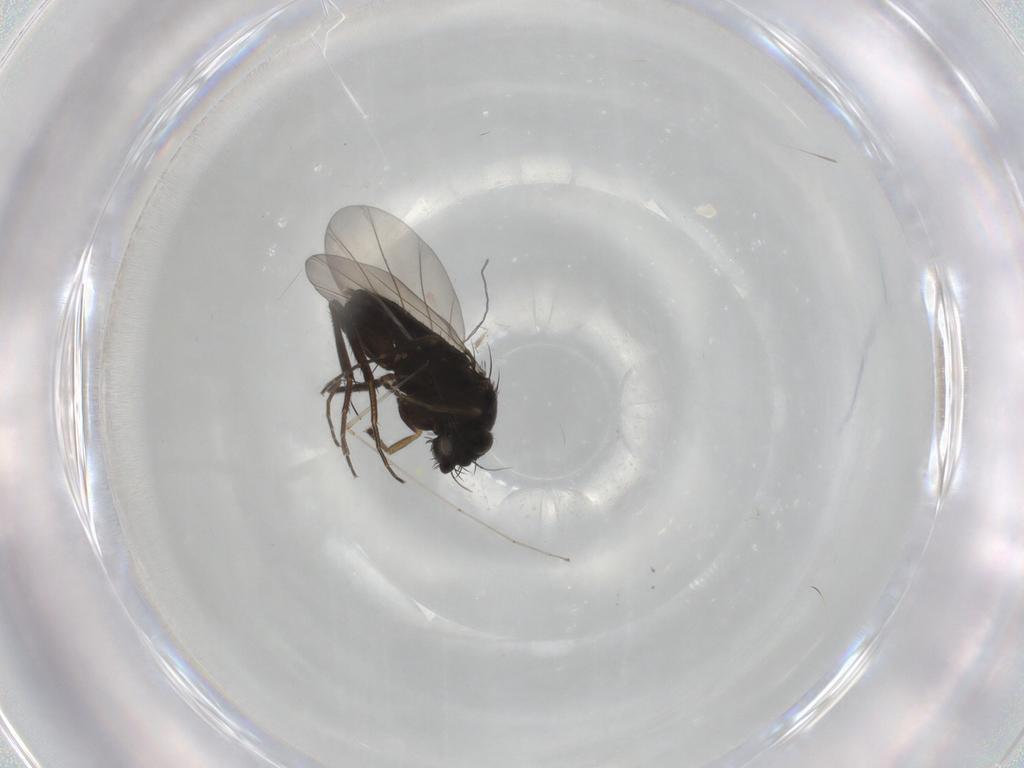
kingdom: Animalia
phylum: Arthropoda
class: Insecta
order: Diptera
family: Phoridae
